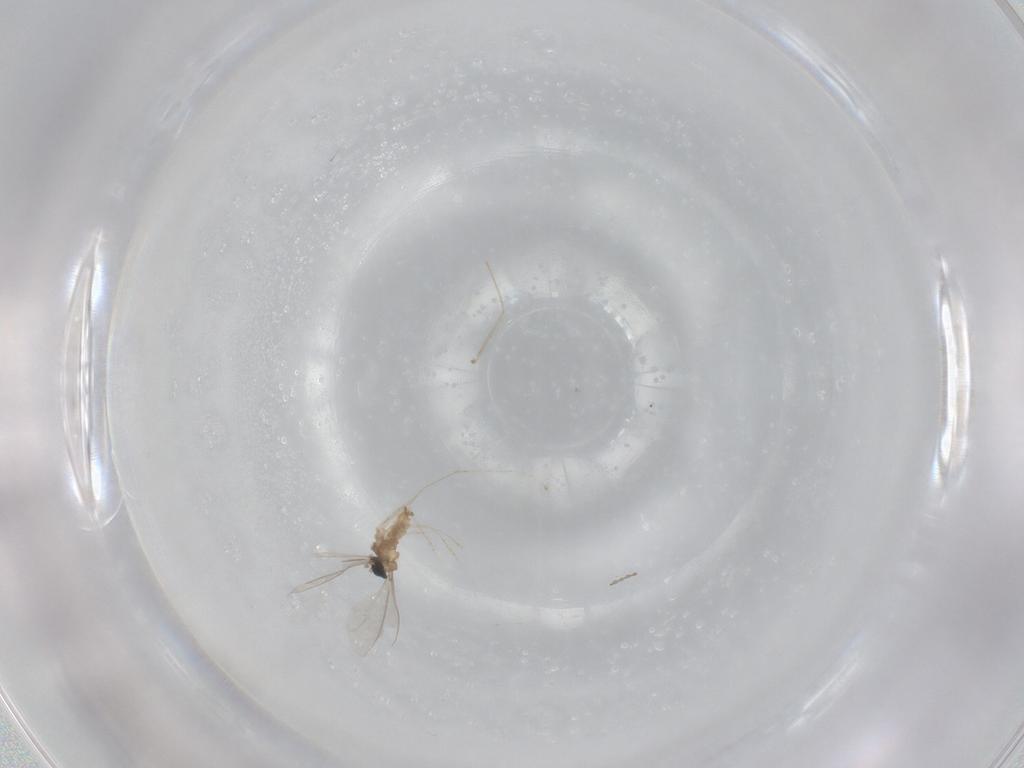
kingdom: Animalia
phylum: Arthropoda
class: Insecta
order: Diptera
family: Cecidomyiidae
